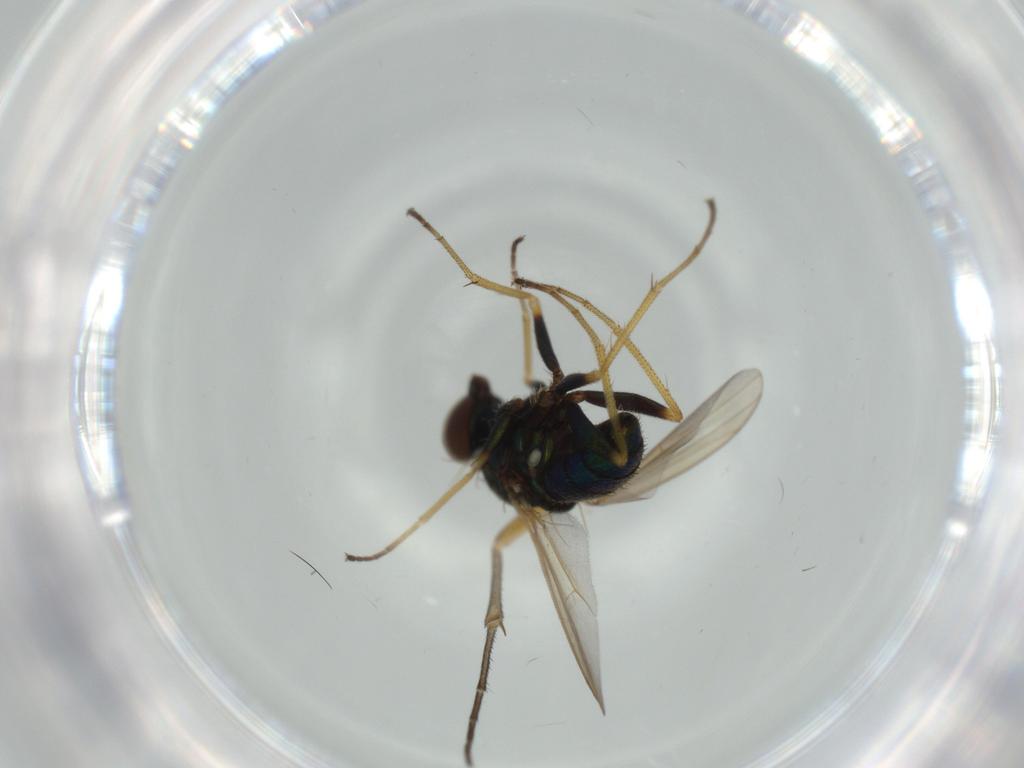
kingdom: Animalia
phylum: Arthropoda
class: Insecta
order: Diptera
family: Dolichopodidae
